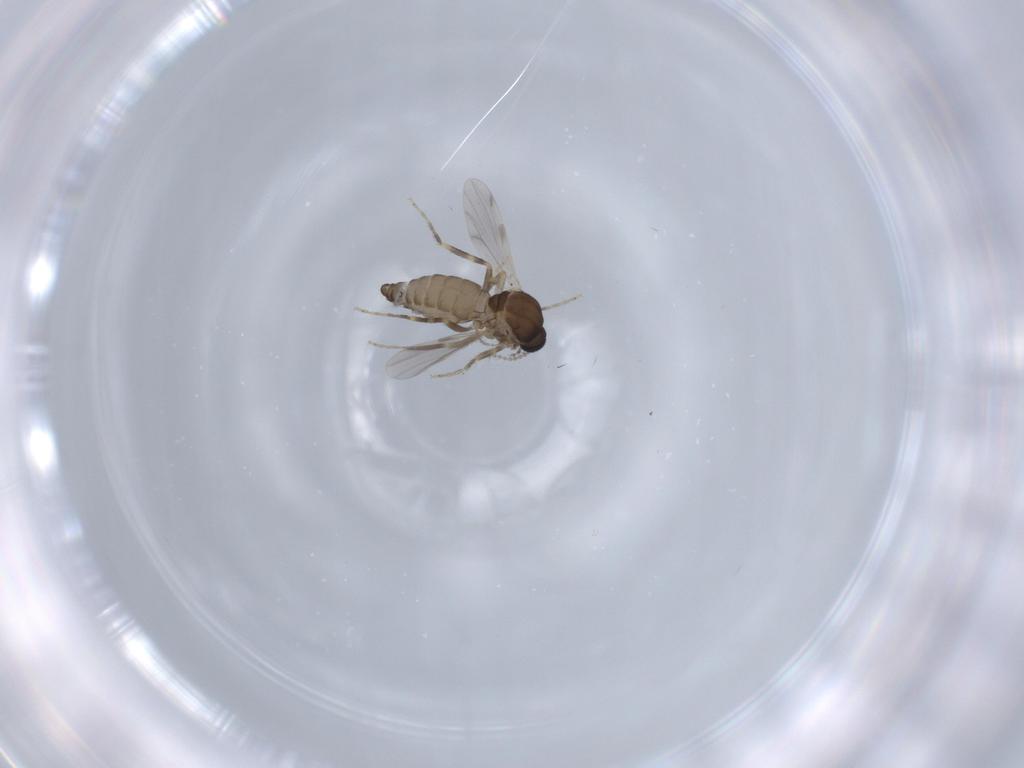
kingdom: Animalia
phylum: Arthropoda
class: Insecta
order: Diptera
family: Ceratopogonidae
